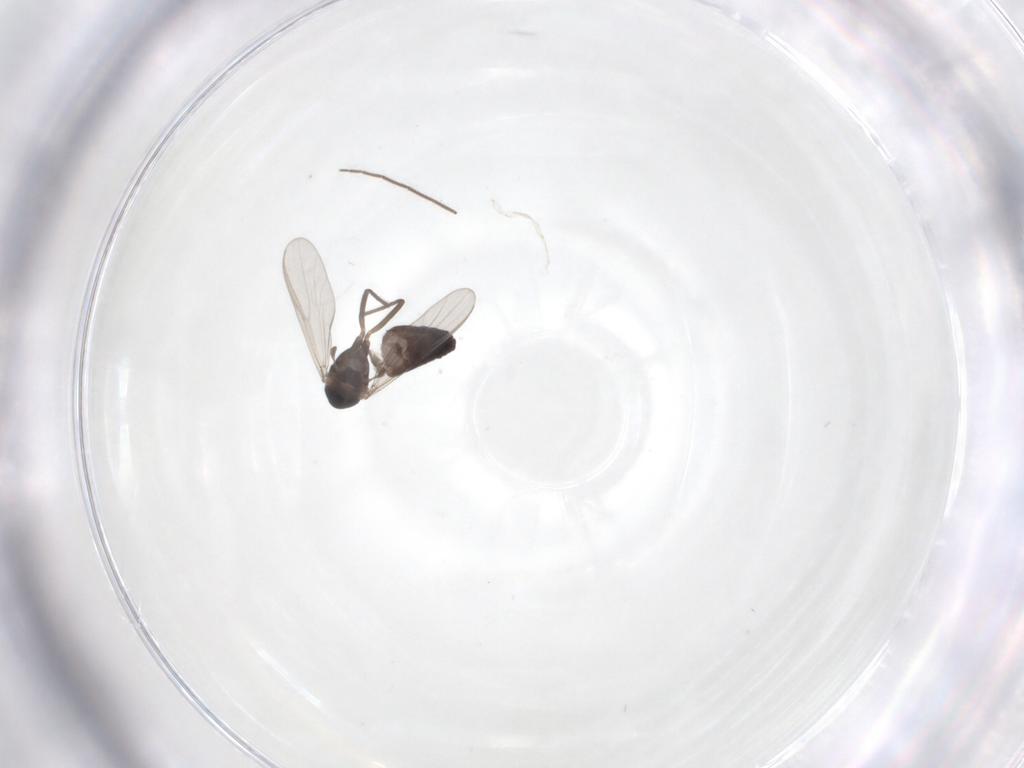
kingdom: Animalia
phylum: Arthropoda
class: Insecta
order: Diptera
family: Chironomidae
